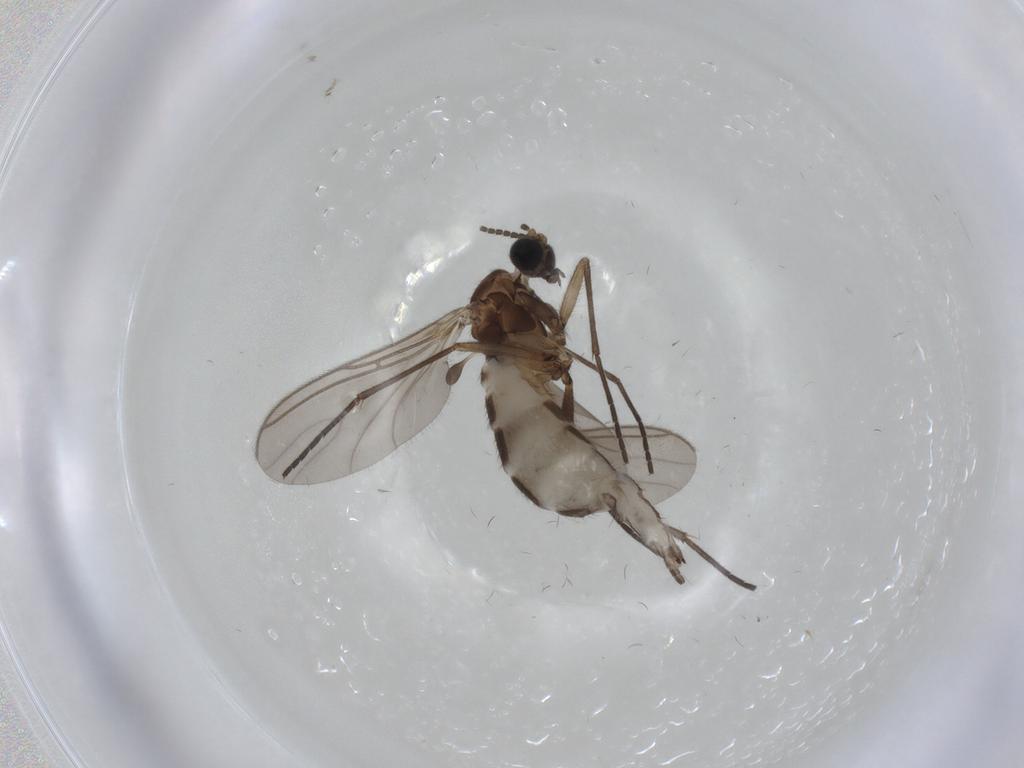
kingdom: Animalia
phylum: Arthropoda
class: Insecta
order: Diptera
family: Sciaridae
